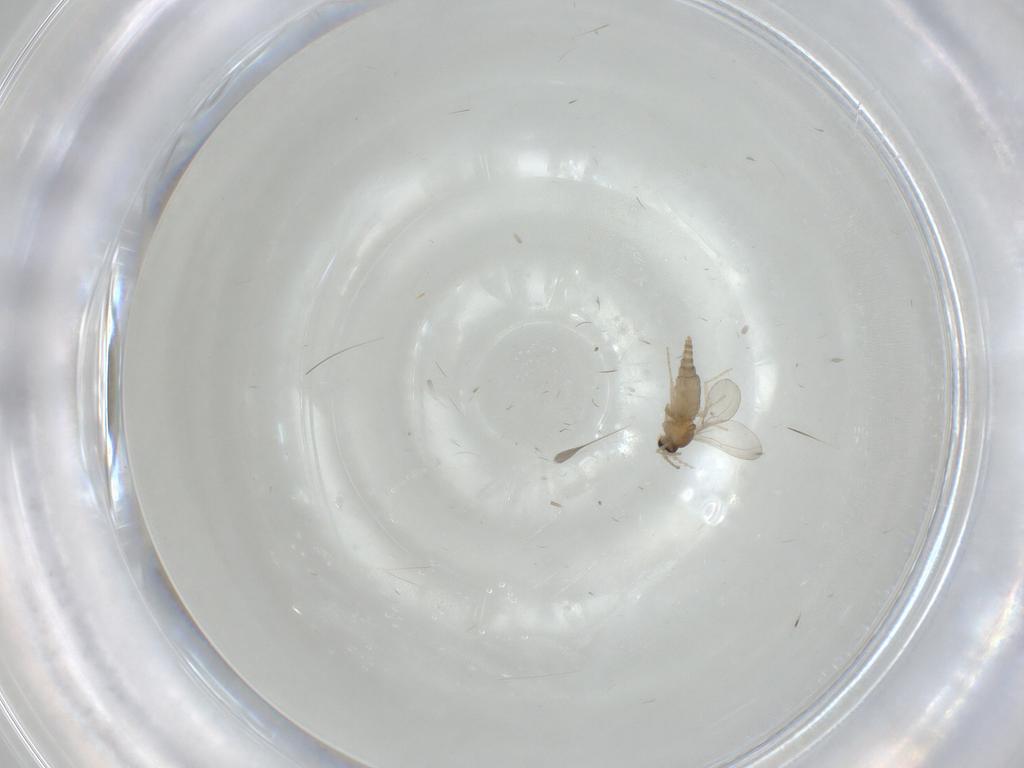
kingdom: Animalia
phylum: Arthropoda
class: Insecta
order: Diptera
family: Cecidomyiidae
